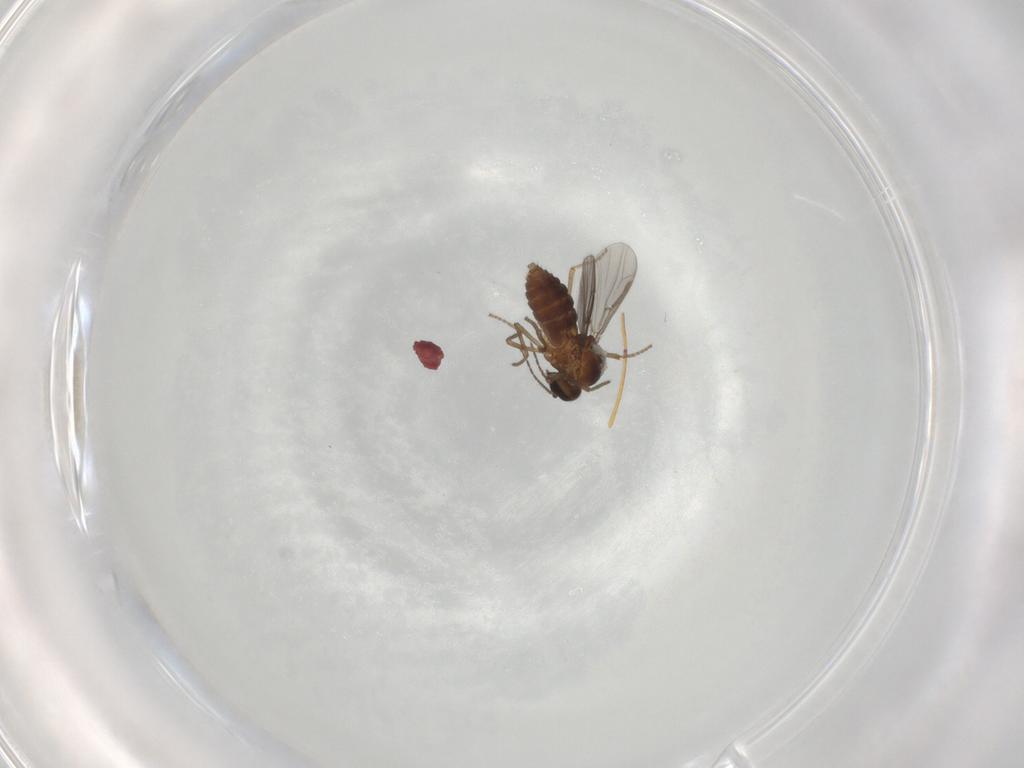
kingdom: Animalia
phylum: Arthropoda
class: Insecta
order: Diptera
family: Ceratopogonidae
